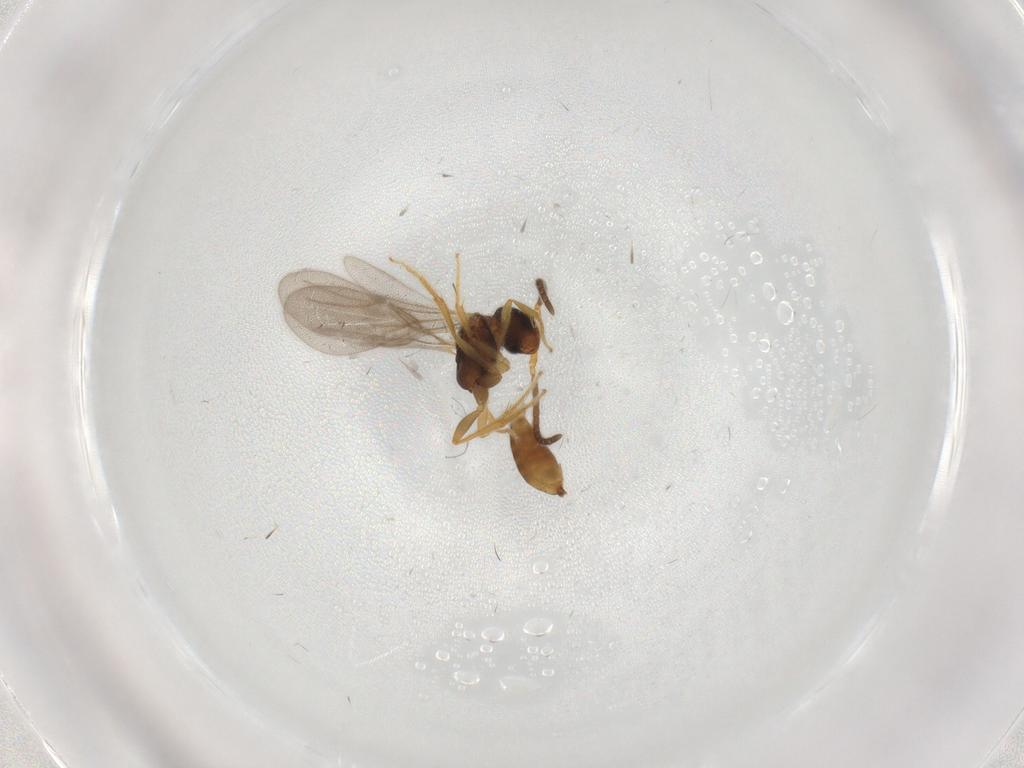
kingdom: Animalia
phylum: Arthropoda
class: Insecta
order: Hymenoptera
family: Bethylidae
